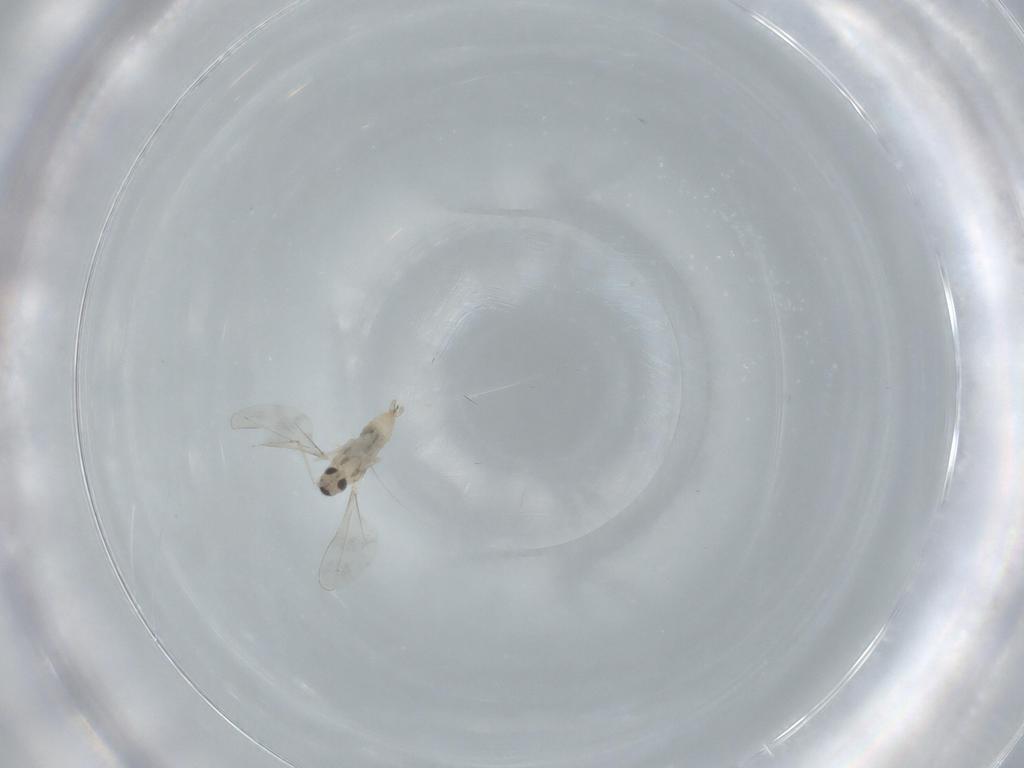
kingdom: Animalia
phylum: Arthropoda
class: Insecta
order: Diptera
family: Cecidomyiidae
